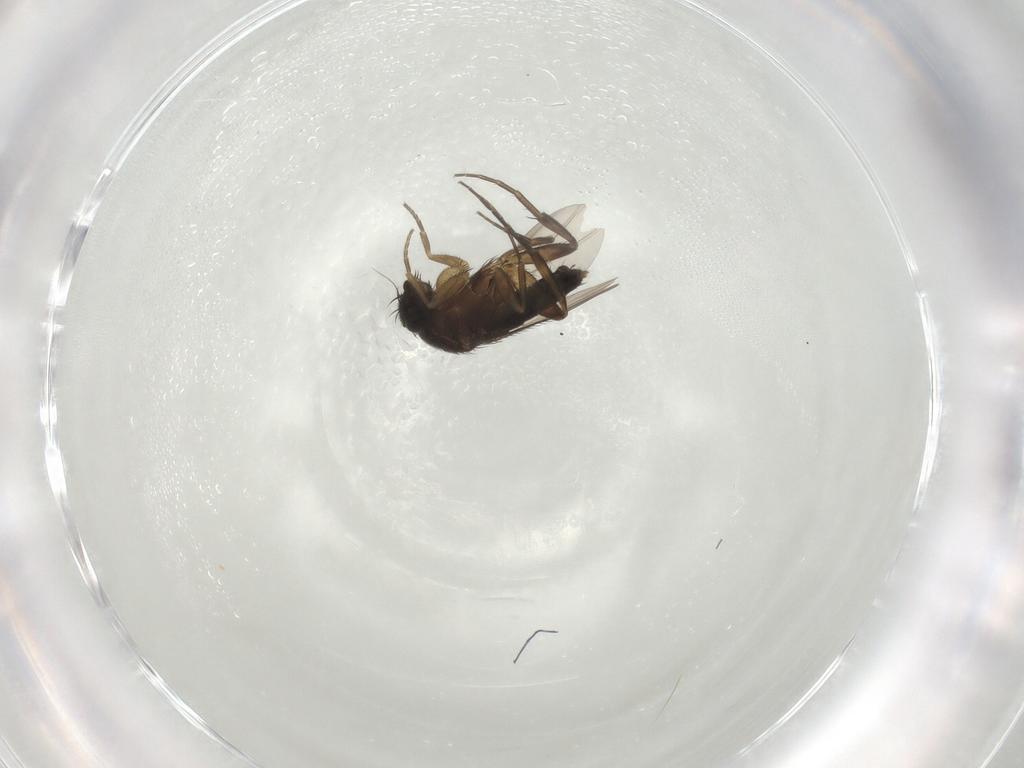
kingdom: Animalia
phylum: Arthropoda
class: Insecta
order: Diptera
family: Phoridae
